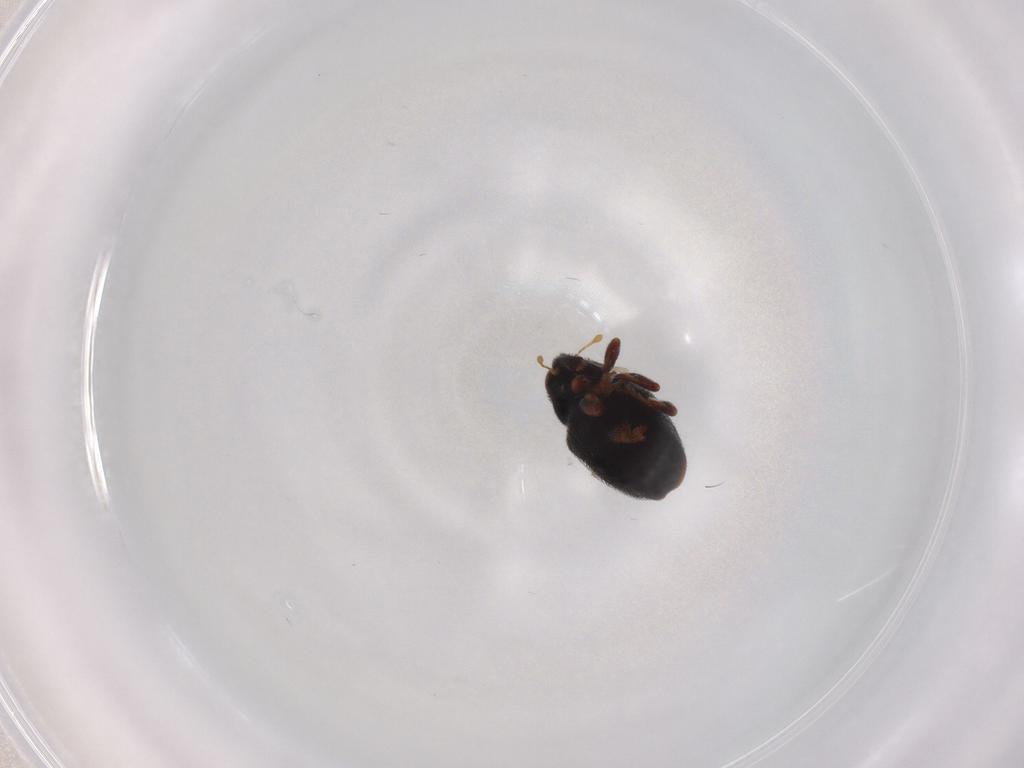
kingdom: Animalia
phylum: Arthropoda
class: Insecta
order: Coleoptera
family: Curculionidae
